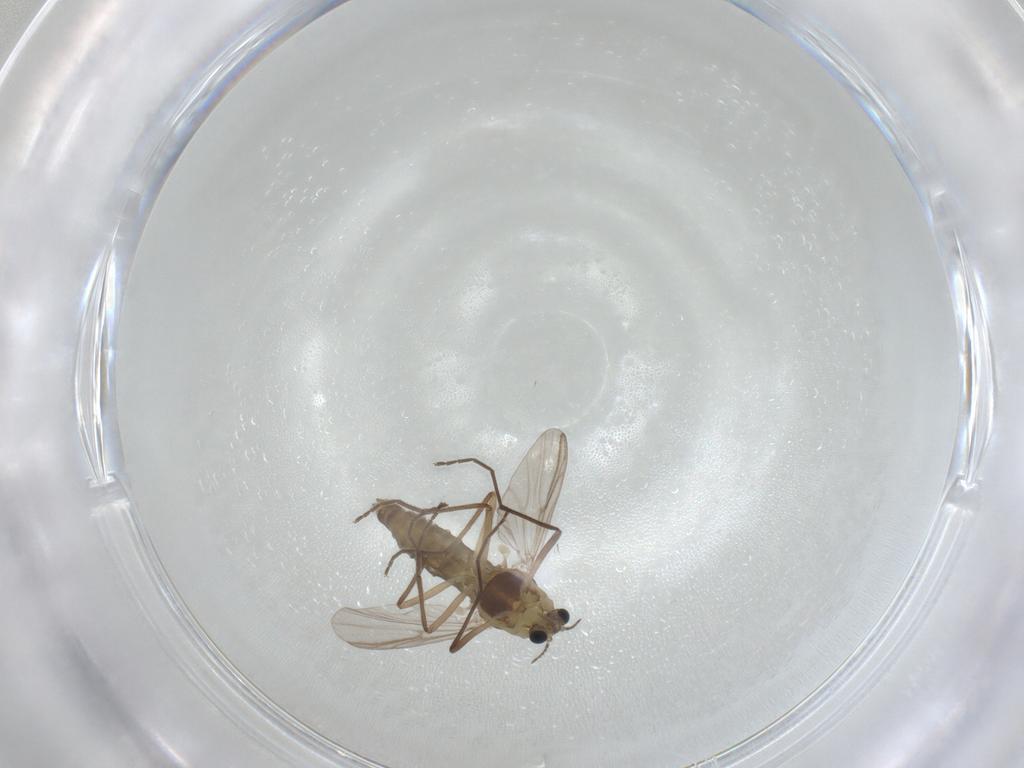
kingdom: Animalia
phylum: Arthropoda
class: Insecta
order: Diptera
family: Chironomidae
